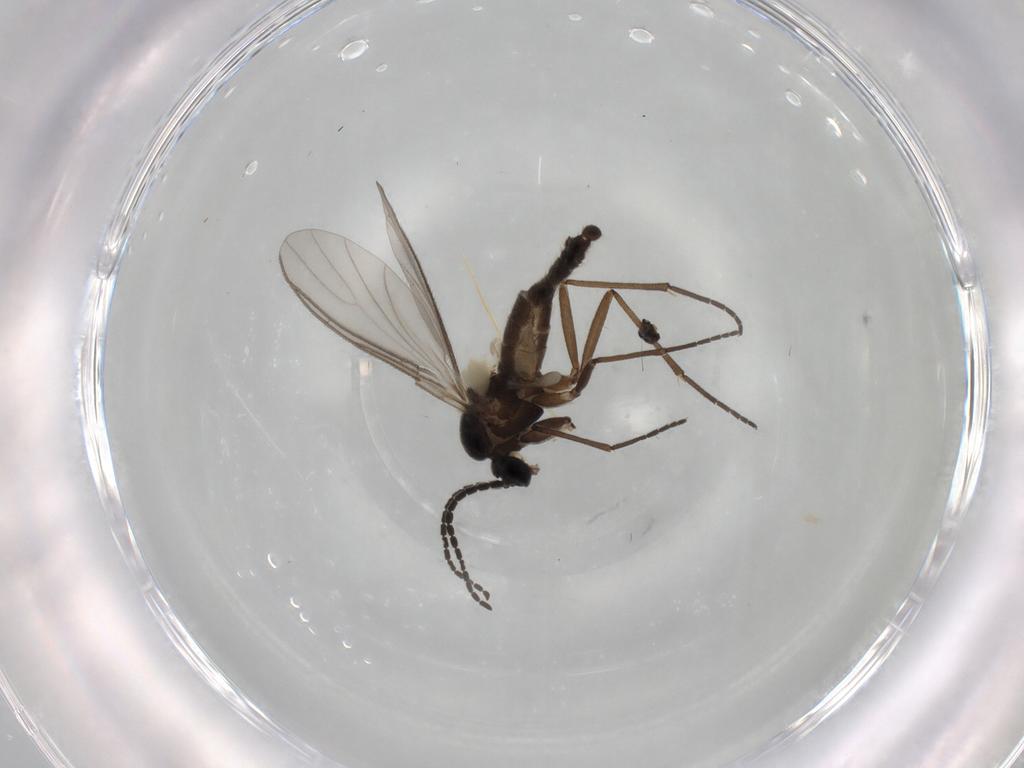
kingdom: Animalia
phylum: Arthropoda
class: Insecta
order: Diptera
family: Sciaridae
